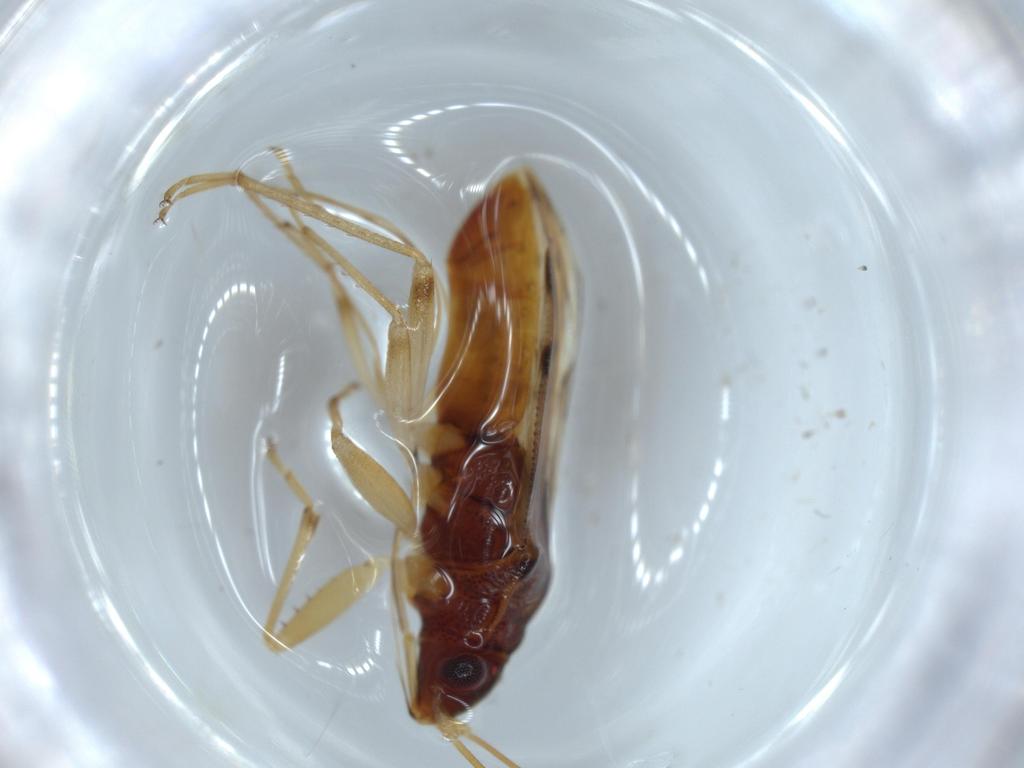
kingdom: Animalia
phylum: Arthropoda
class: Insecta
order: Hemiptera
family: Rhyparochromidae
